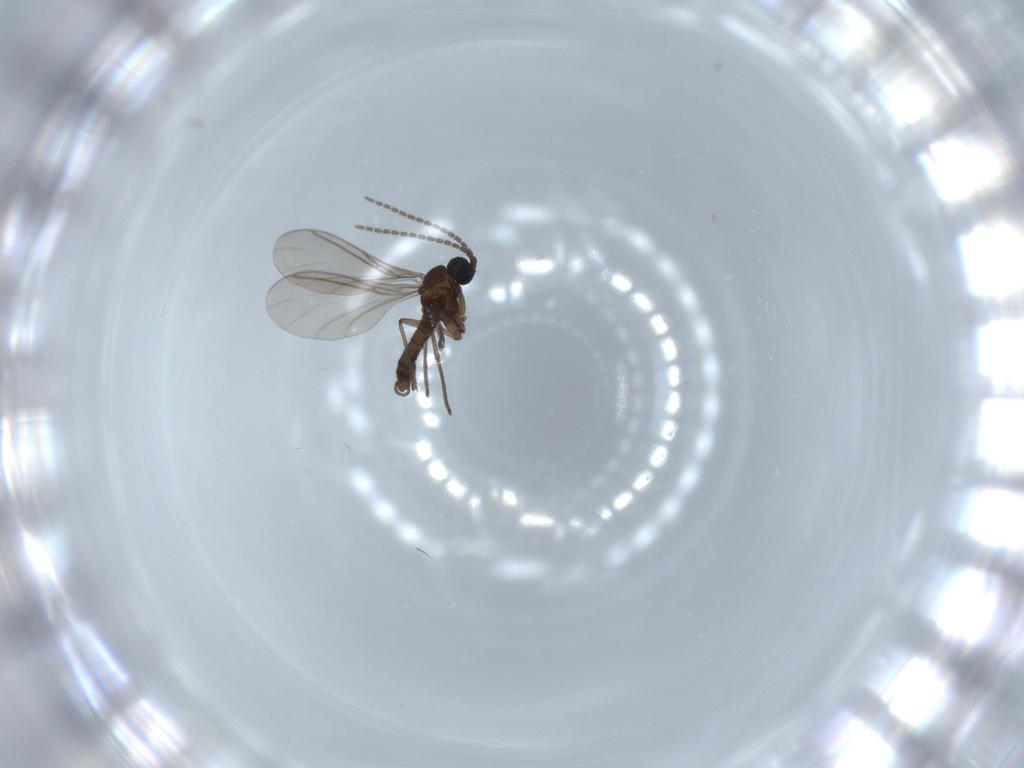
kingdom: Animalia
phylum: Arthropoda
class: Insecta
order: Diptera
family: Sciaridae
